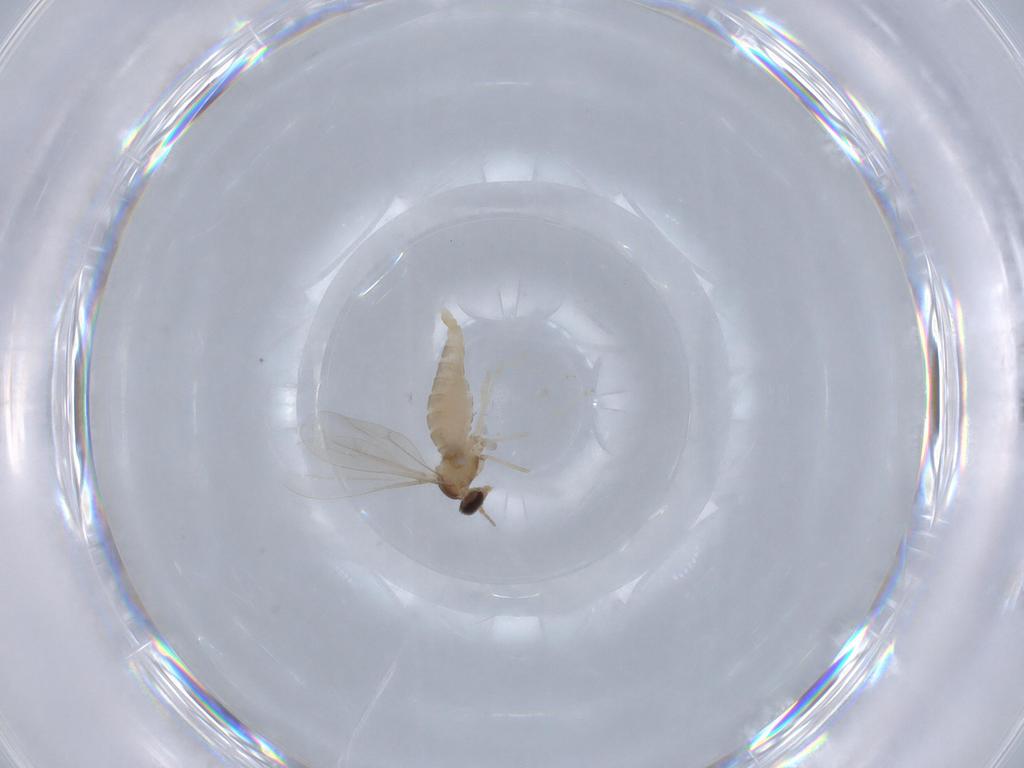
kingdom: Animalia
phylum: Arthropoda
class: Insecta
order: Diptera
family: Cecidomyiidae
